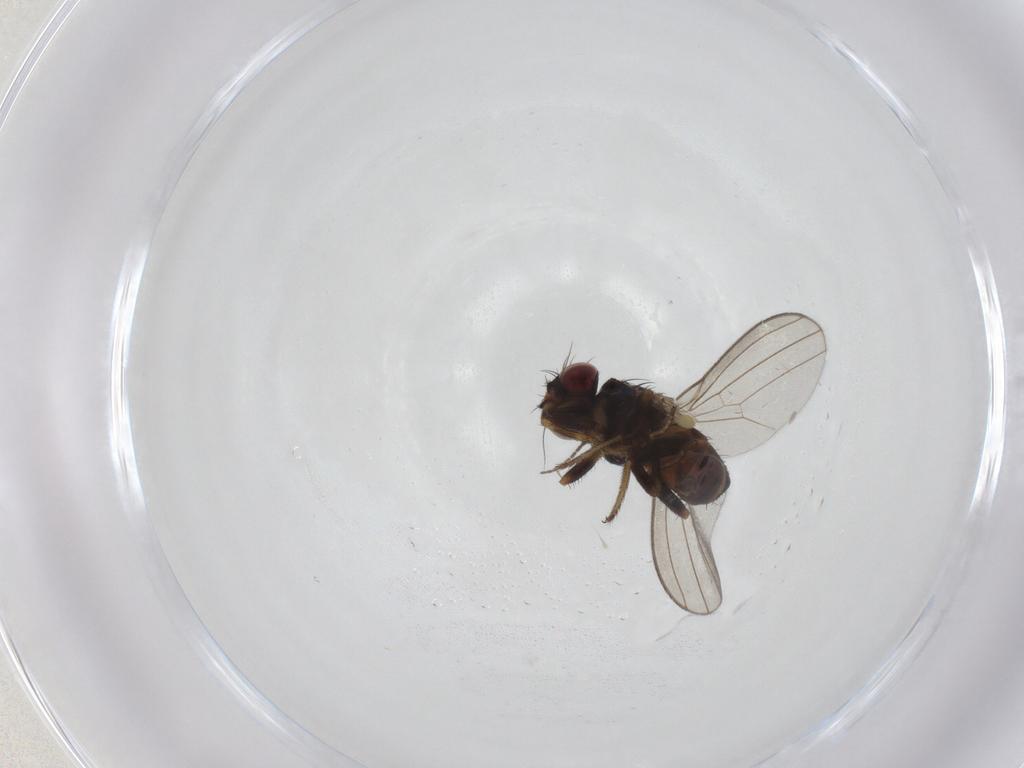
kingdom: Animalia
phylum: Arthropoda
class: Insecta
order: Diptera
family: Milichiidae
